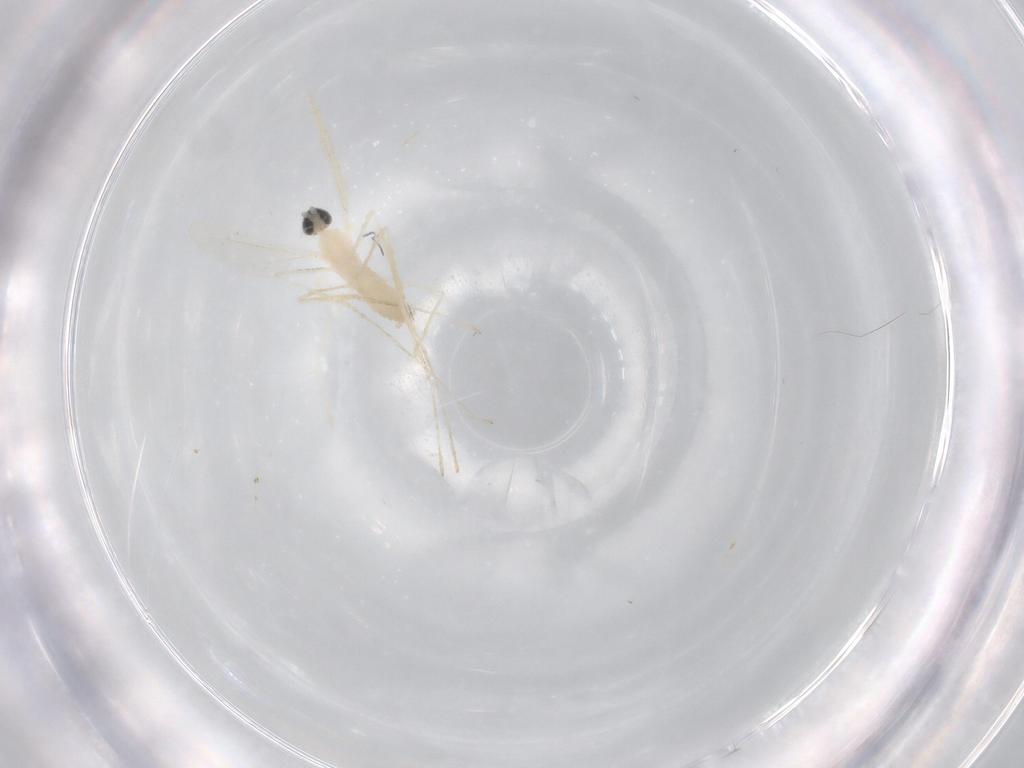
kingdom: Animalia
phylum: Arthropoda
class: Insecta
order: Diptera
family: Cecidomyiidae
